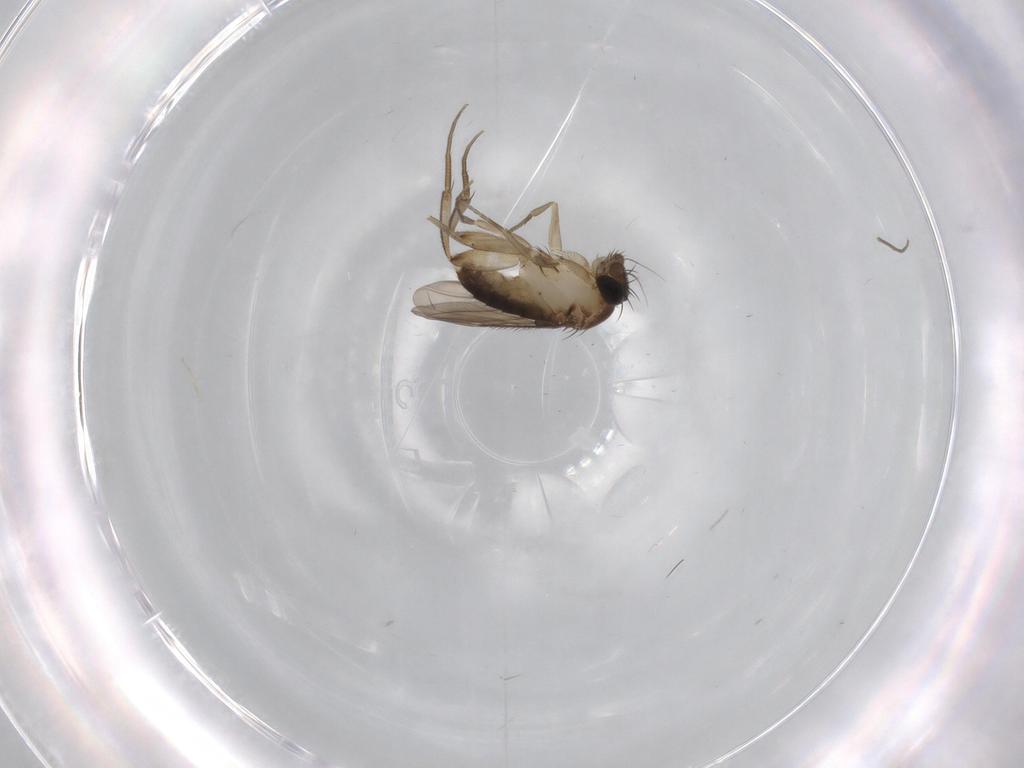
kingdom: Animalia
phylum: Arthropoda
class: Insecta
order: Diptera
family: Phoridae
